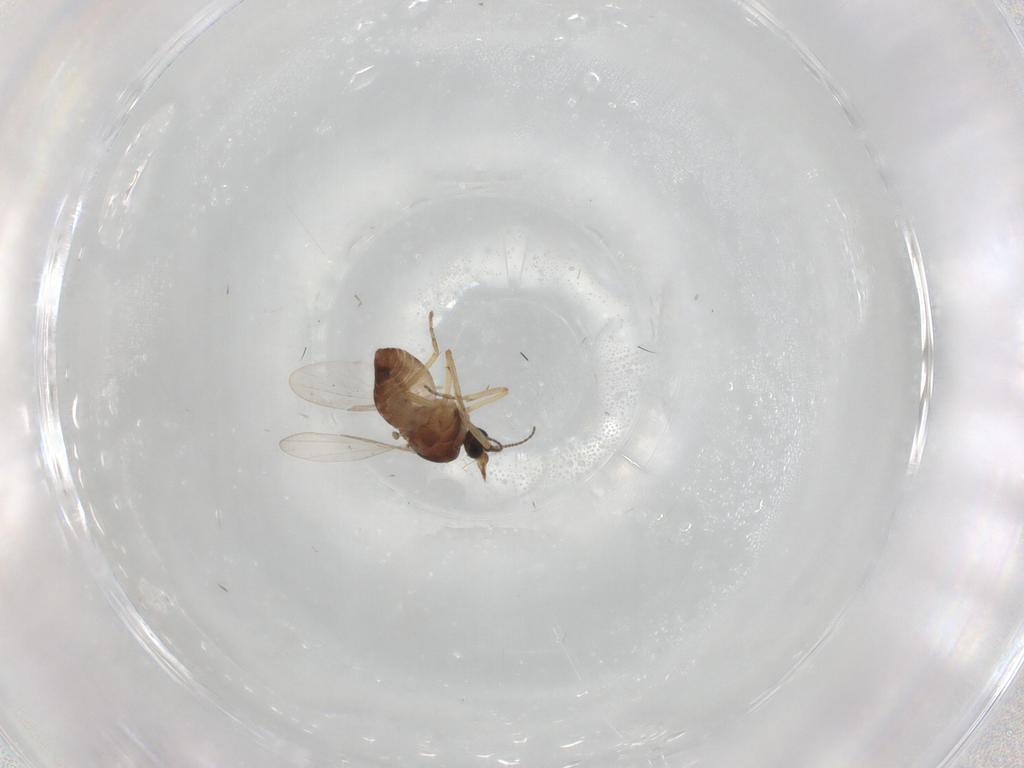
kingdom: Animalia
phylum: Arthropoda
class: Insecta
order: Diptera
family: Ceratopogonidae
